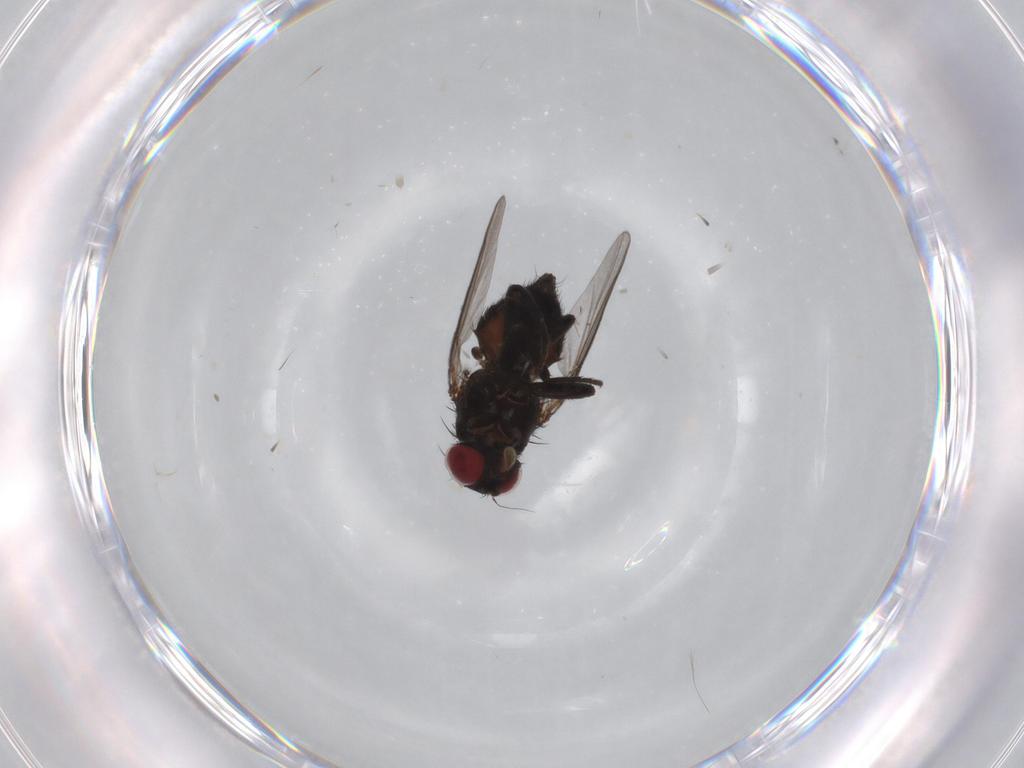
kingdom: Animalia
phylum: Arthropoda
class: Insecta
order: Diptera
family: Agromyzidae
